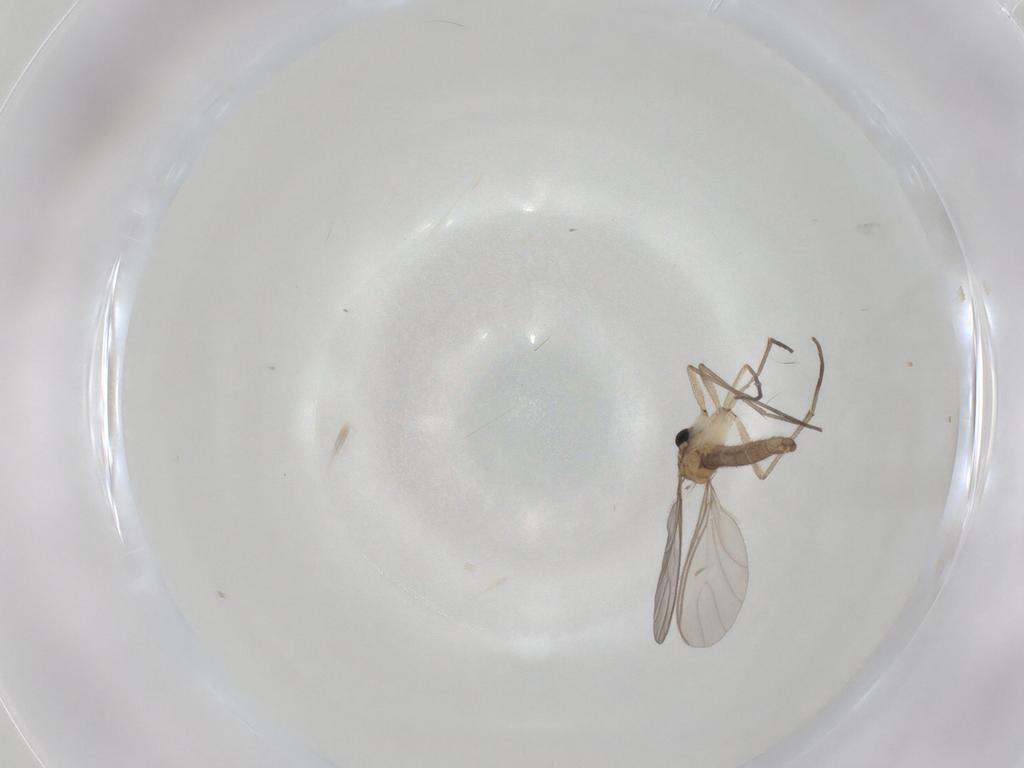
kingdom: Animalia
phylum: Arthropoda
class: Insecta
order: Diptera
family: Sciaridae
